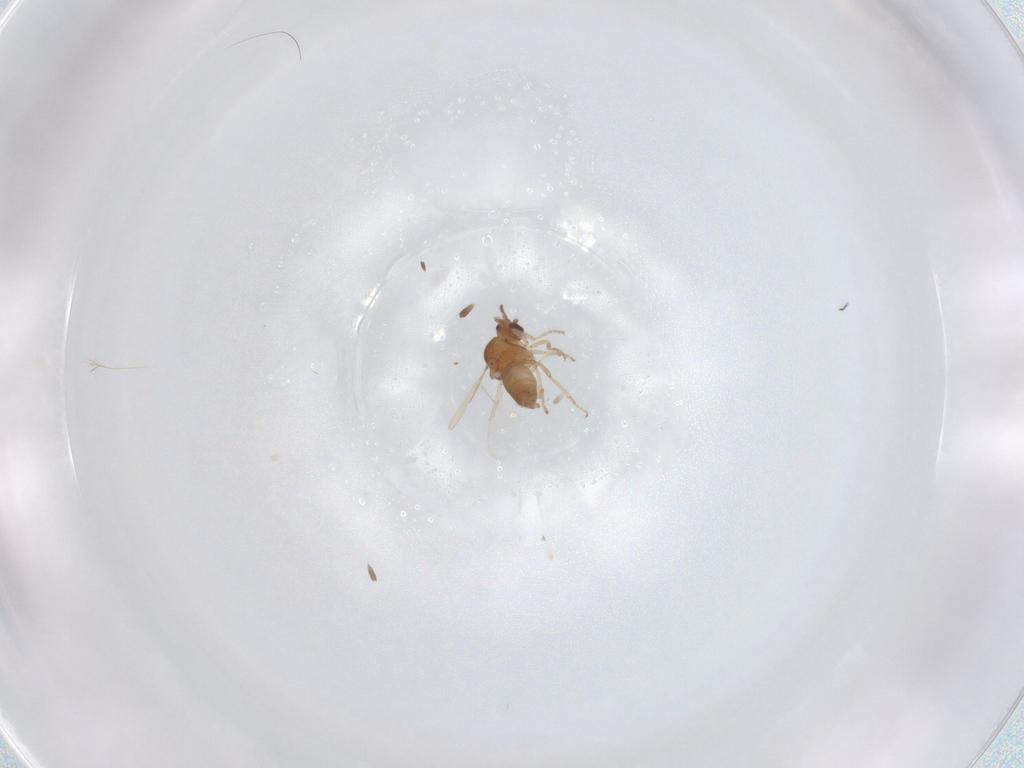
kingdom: Animalia
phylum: Arthropoda
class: Insecta
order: Diptera
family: Ceratopogonidae
